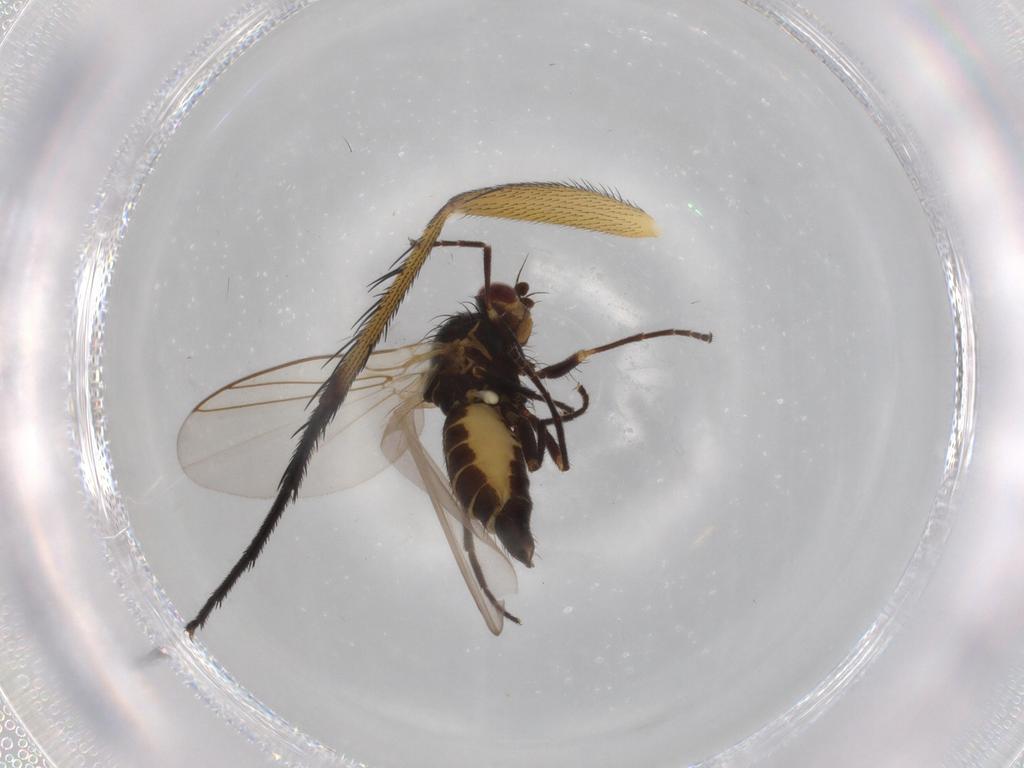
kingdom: Animalia
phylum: Arthropoda
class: Insecta
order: Diptera
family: Agromyzidae
